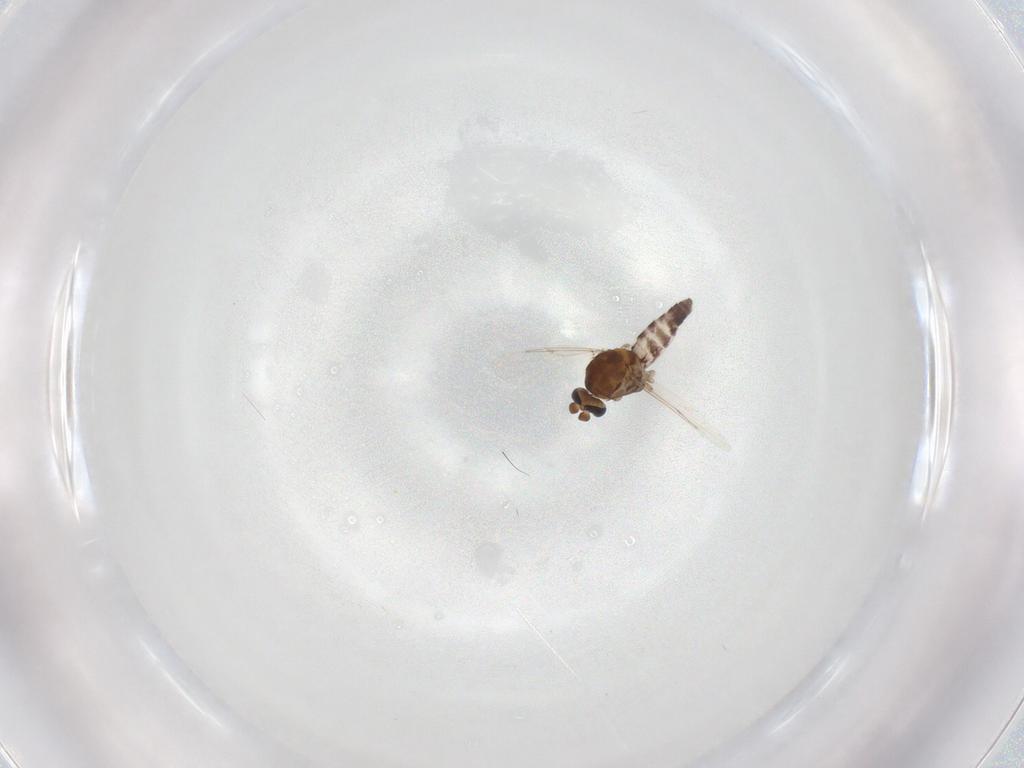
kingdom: Animalia
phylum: Arthropoda
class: Insecta
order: Diptera
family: Ceratopogonidae
